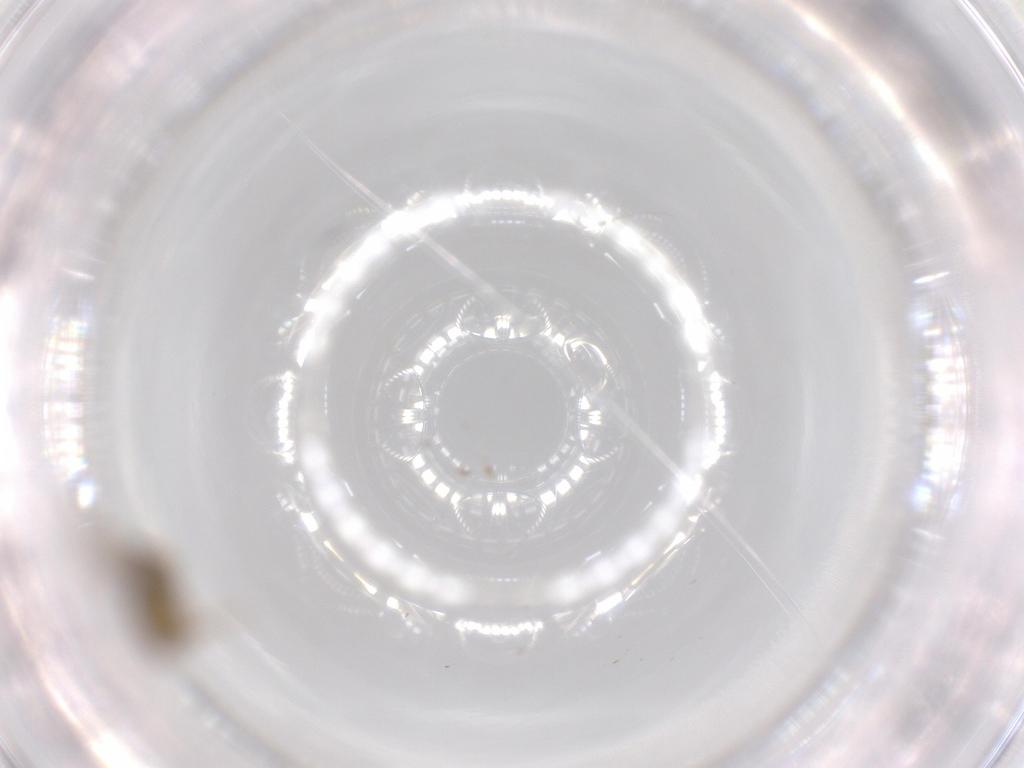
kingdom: Animalia
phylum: Arthropoda
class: Insecta
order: Diptera
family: Cecidomyiidae
